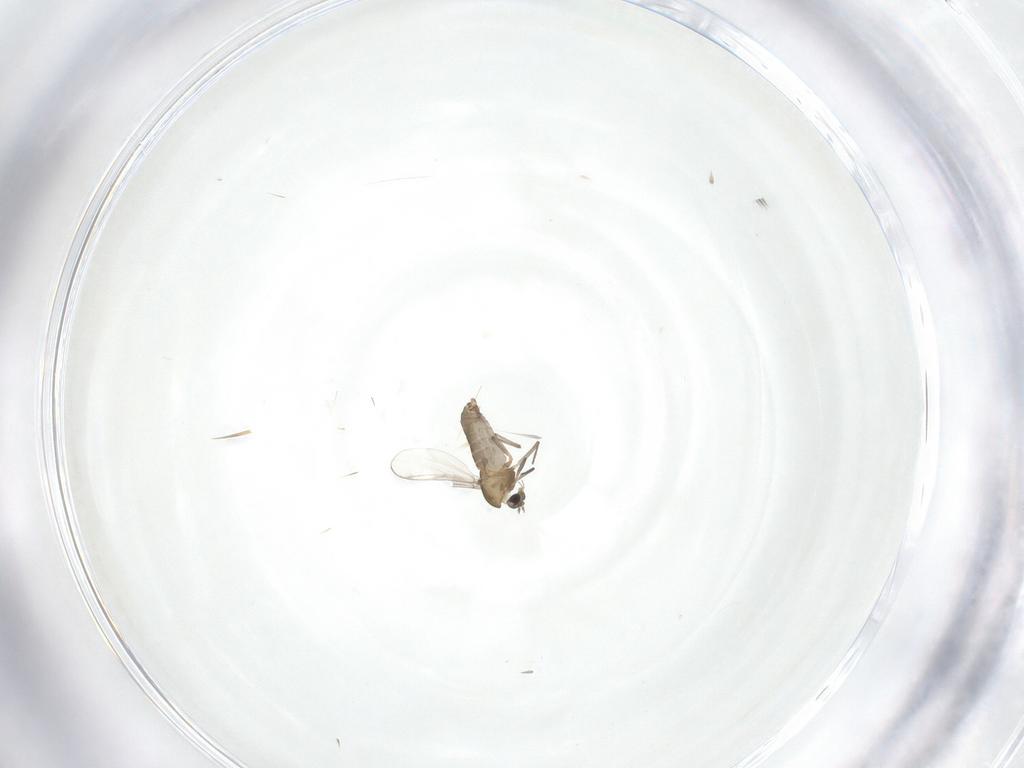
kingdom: Animalia
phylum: Arthropoda
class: Insecta
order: Diptera
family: Chironomidae
